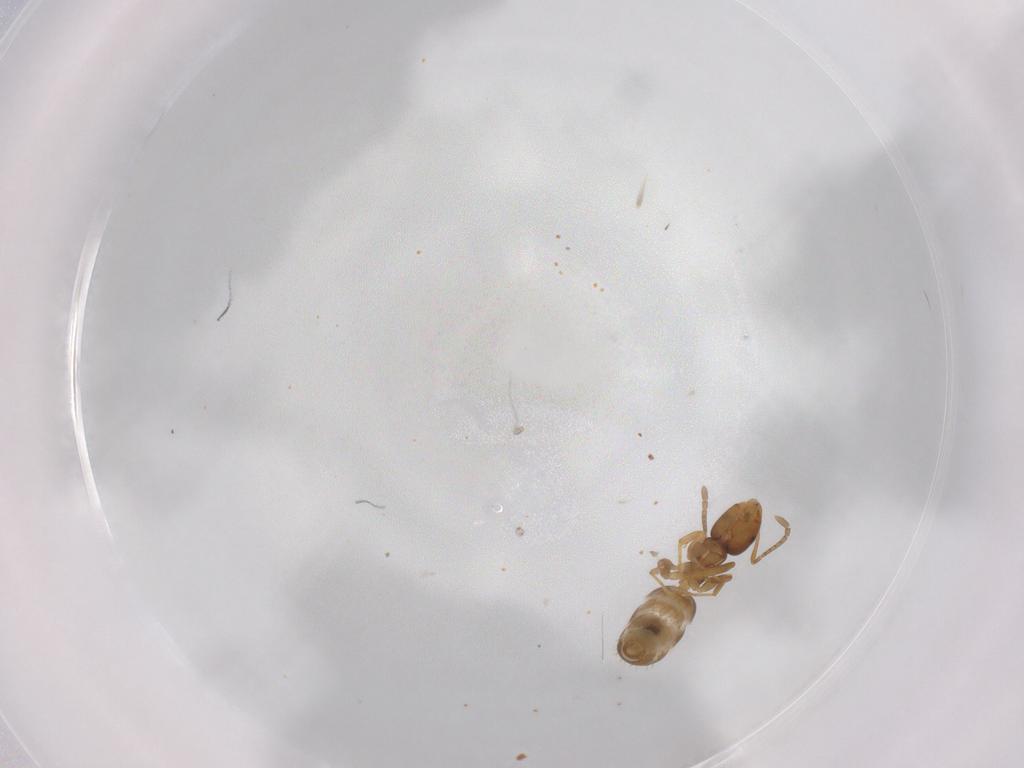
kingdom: Animalia
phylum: Arthropoda
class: Insecta
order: Hymenoptera
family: Formicidae
